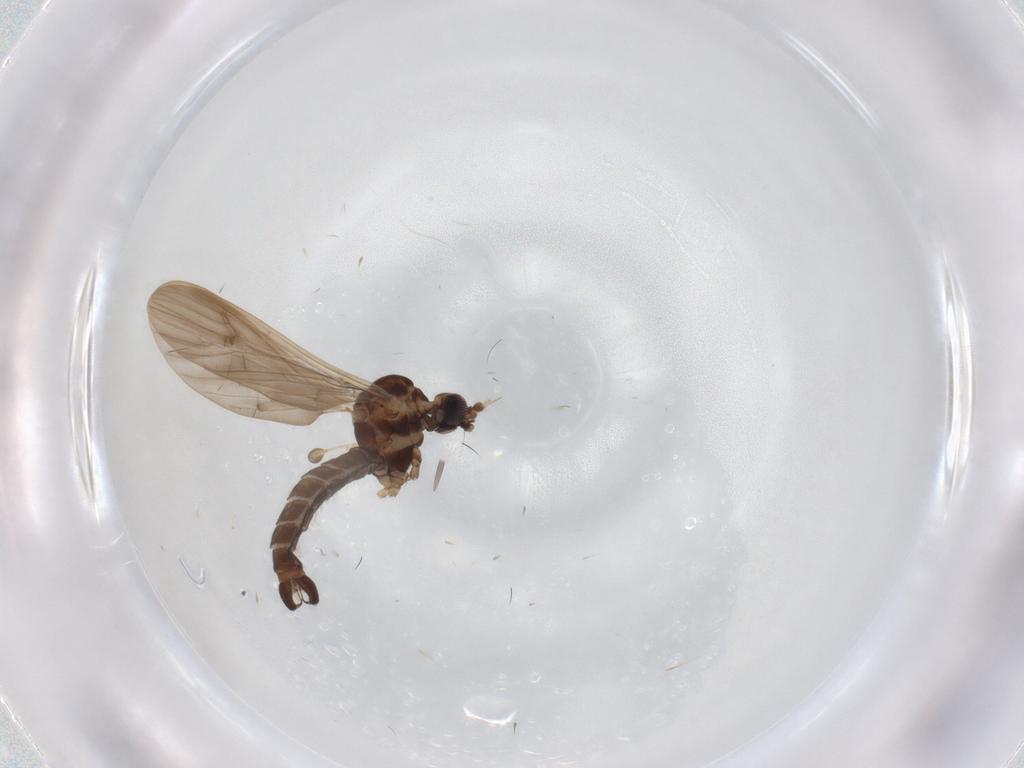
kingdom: Animalia
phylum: Arthropoda
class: Insecta
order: Diptera
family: Limoniidae
